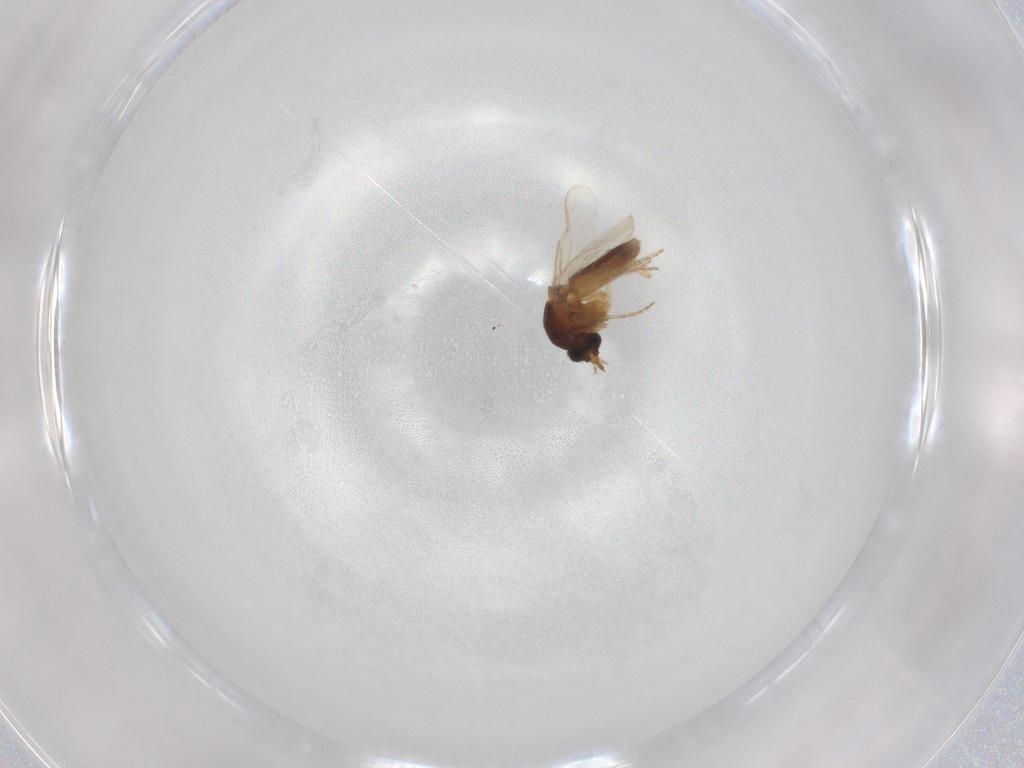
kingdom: Animalia
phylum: Arthropoda
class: Insecta
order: Diptera
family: Ceratopogonidae
